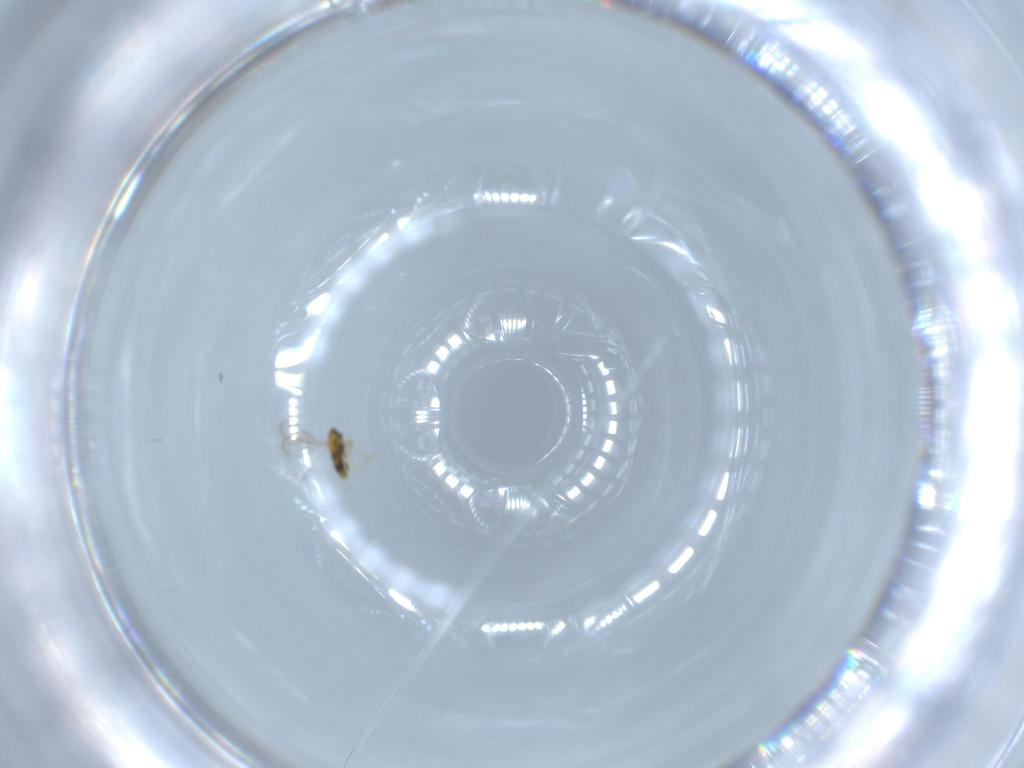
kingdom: Animalia
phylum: Arthropoda
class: Insecta
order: Hymenoptera
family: Aphelinidae
